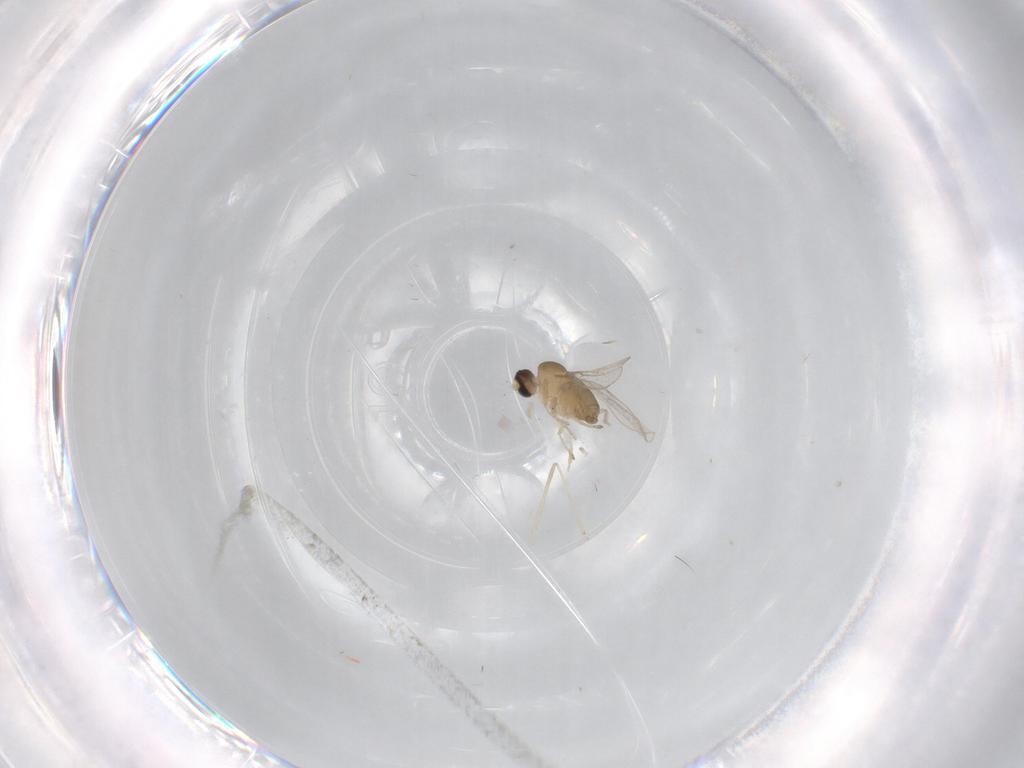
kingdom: Animalia
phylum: Arthropoda
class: Insecta
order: Diptera
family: Cecidomyiidae
